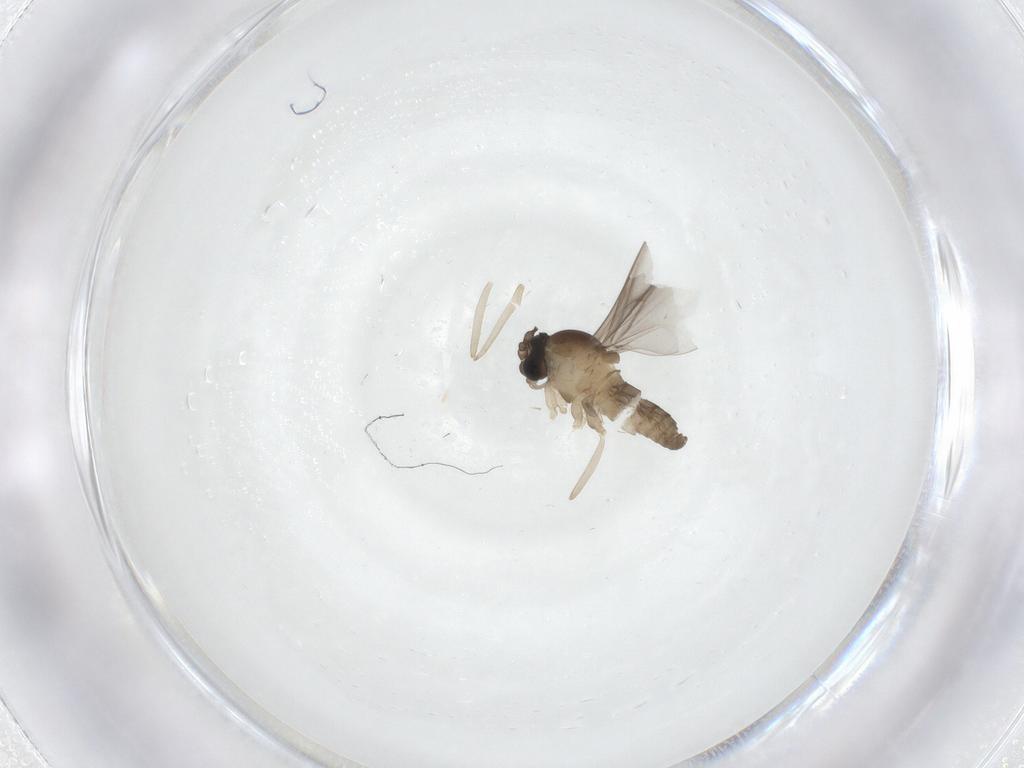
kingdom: Animalia
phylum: Arthropoda
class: Insecta
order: Diptera
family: Cecidomyiidae
